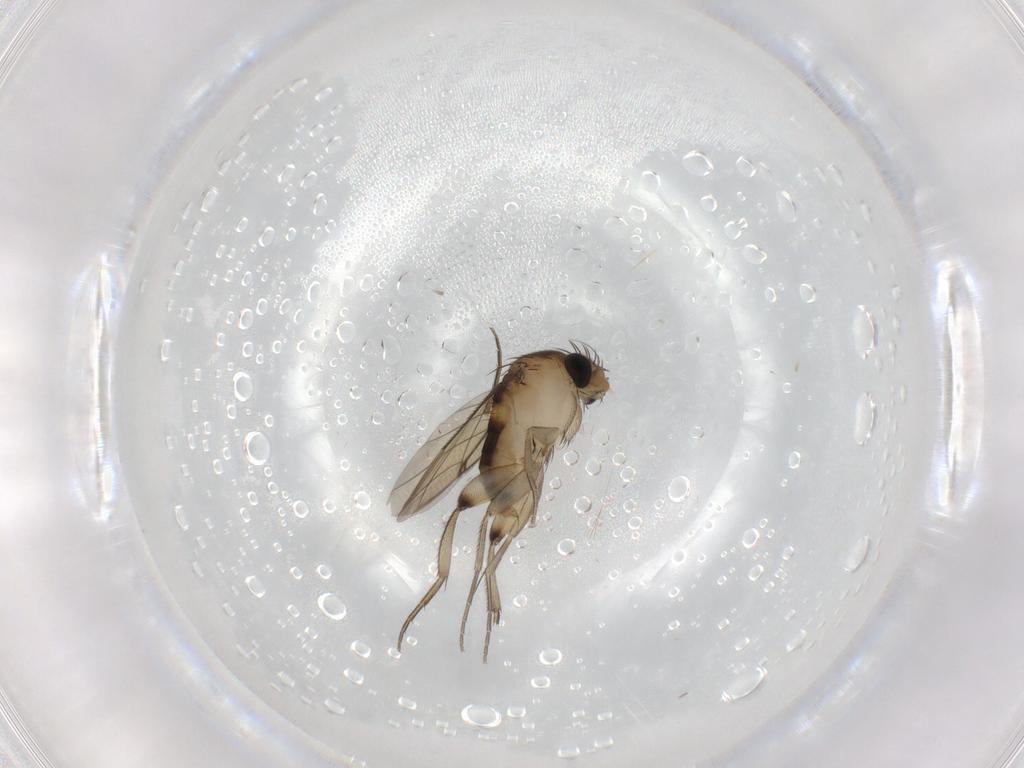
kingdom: Animalia
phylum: Arthropoda
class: Insecta
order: Diptera
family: Phoridae
